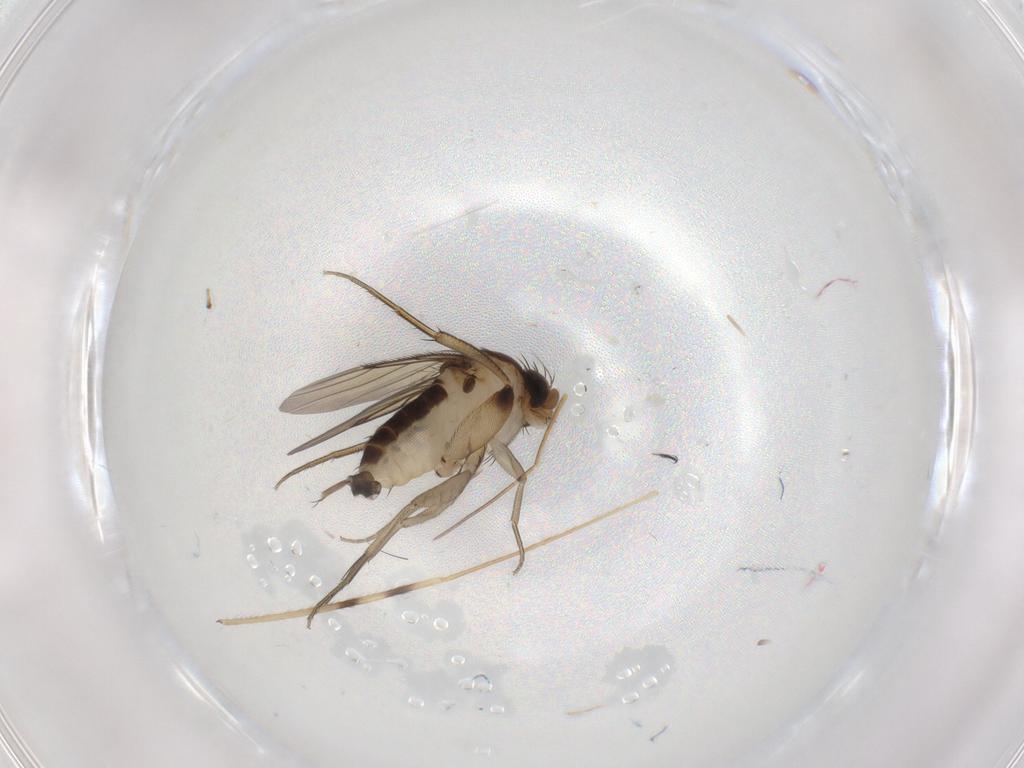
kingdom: Animalia
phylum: Arthropoda
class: Insecta
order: Diptera
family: Phoridae
